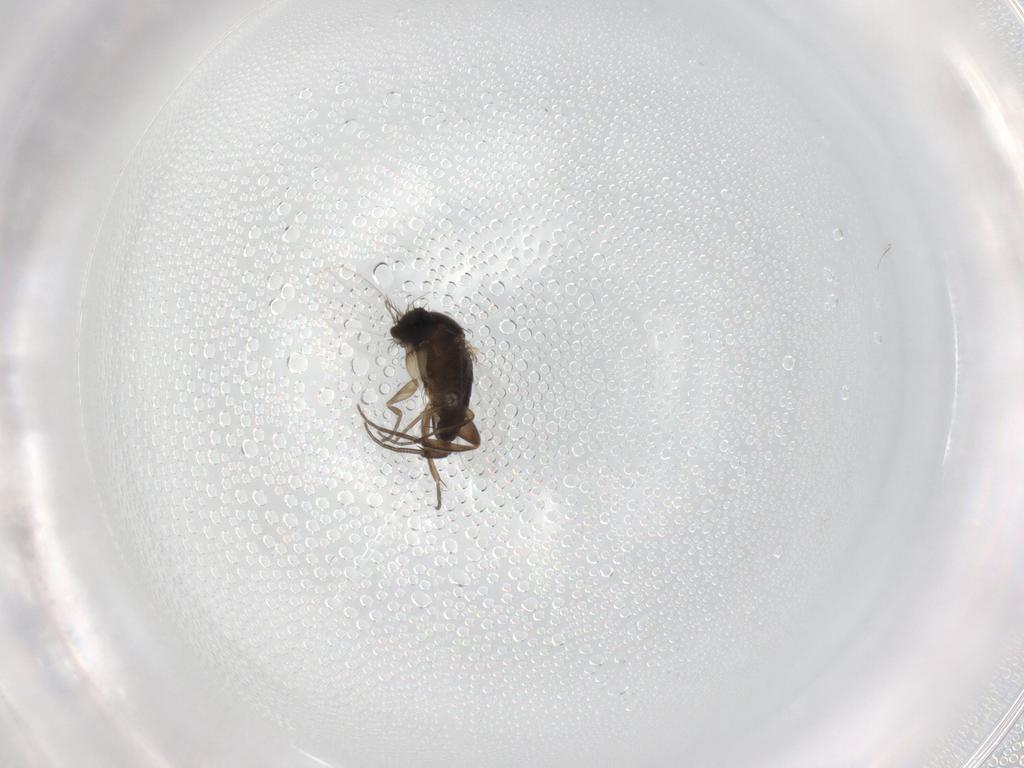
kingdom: Animalia
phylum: Arthropoda
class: Insecta
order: Diptera
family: Phoridae
